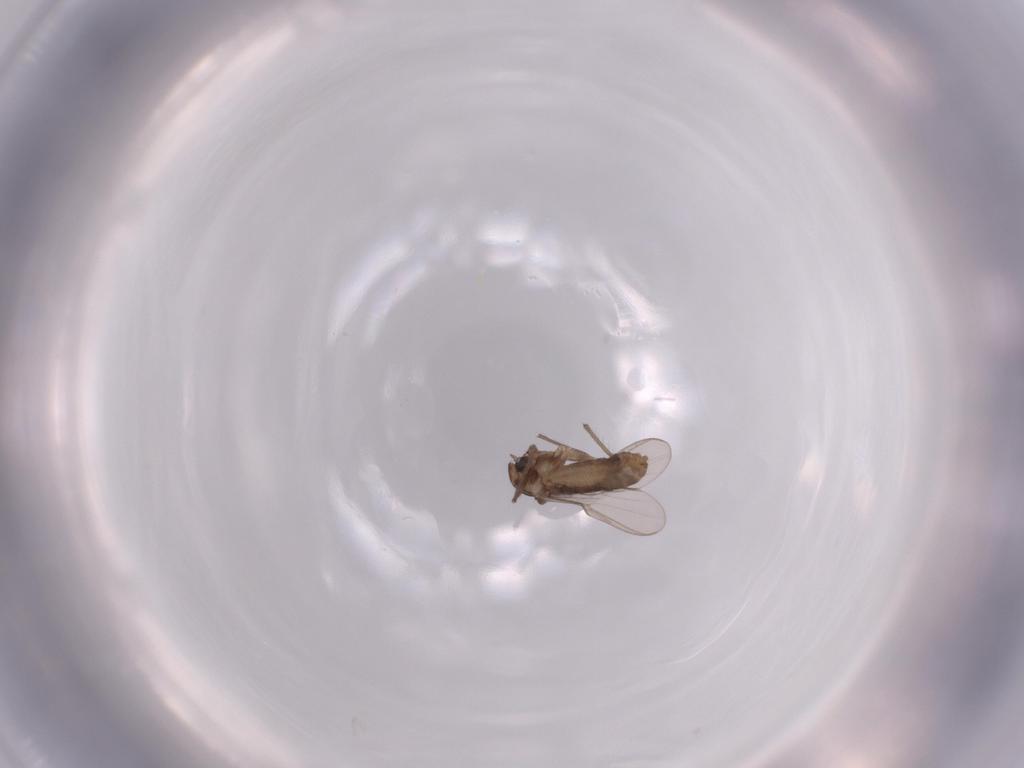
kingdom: Animalia
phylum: Arthropoda
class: Insecta
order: Diptera
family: Chironomidae
